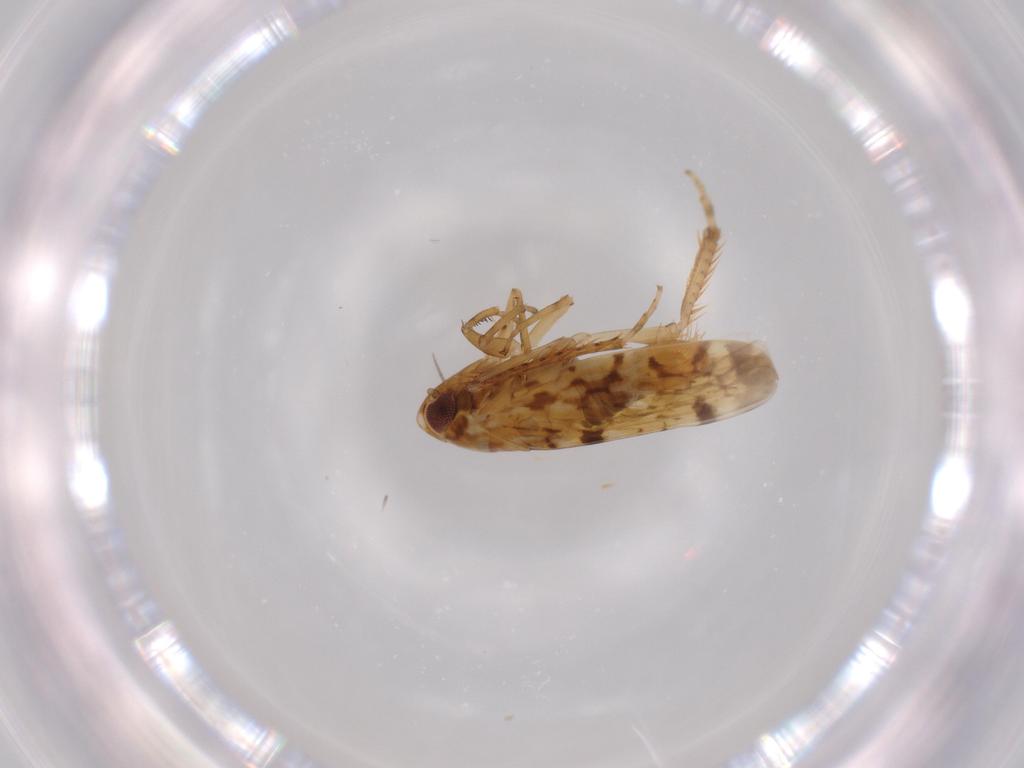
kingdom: Animalia
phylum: Arthropoda
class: Insecta
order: Hemiptera
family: Cicadellidae
